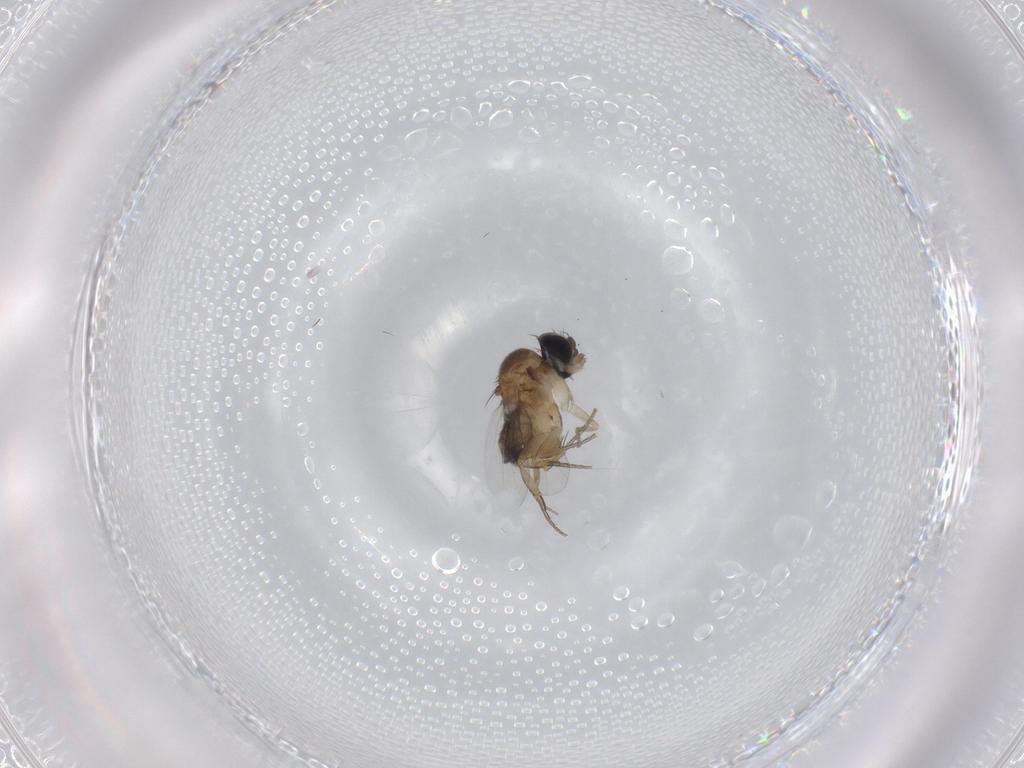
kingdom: Animalia
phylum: Arthropoda
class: Insecta
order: Diptera
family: Phoridae
